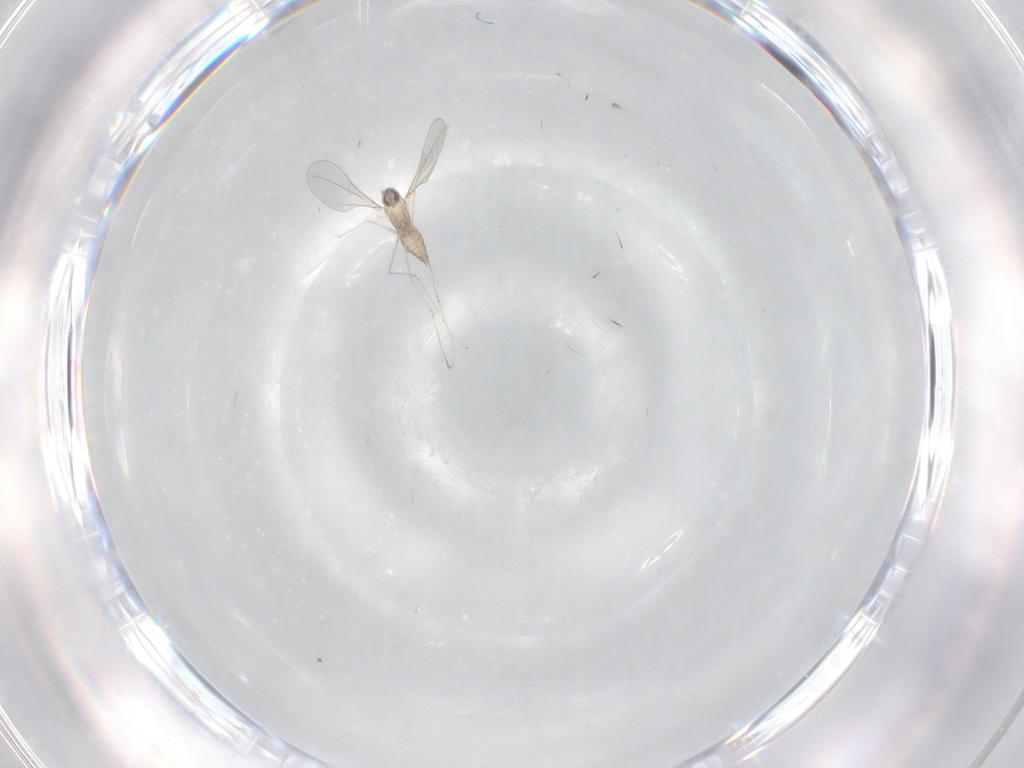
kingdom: Animalia
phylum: Arthropoda
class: Insecta
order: Diptera
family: Cecidomyiidae
